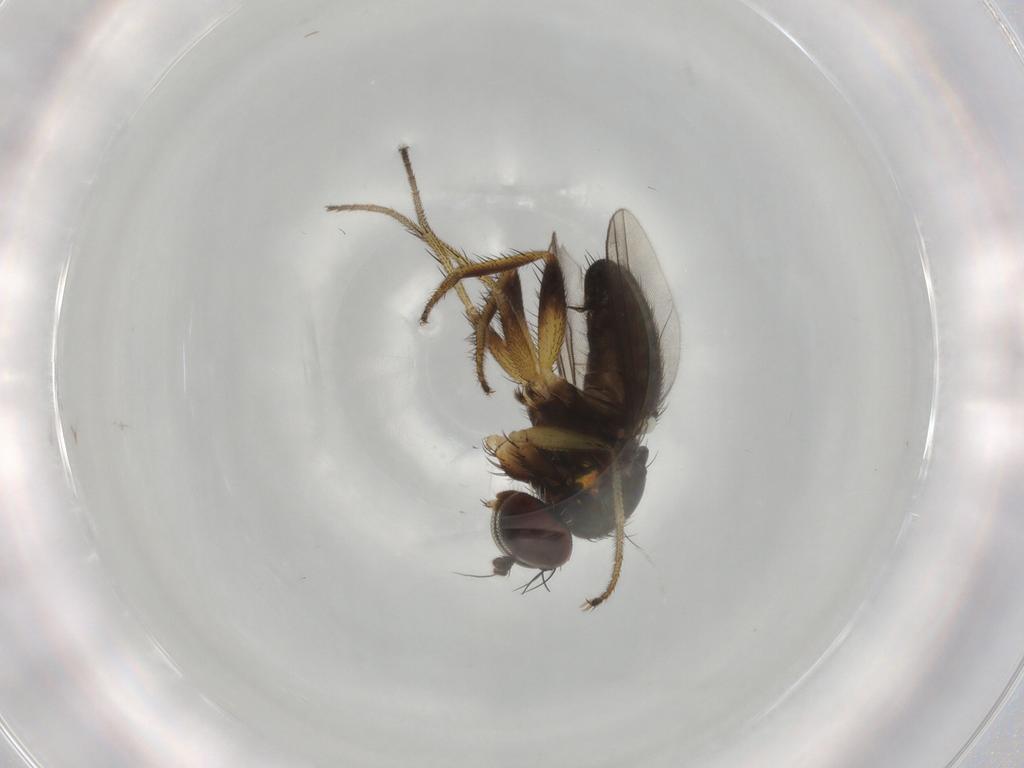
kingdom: Animalia
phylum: Arthropoda
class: Insecta
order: Diptera
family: Dolichopodidae
